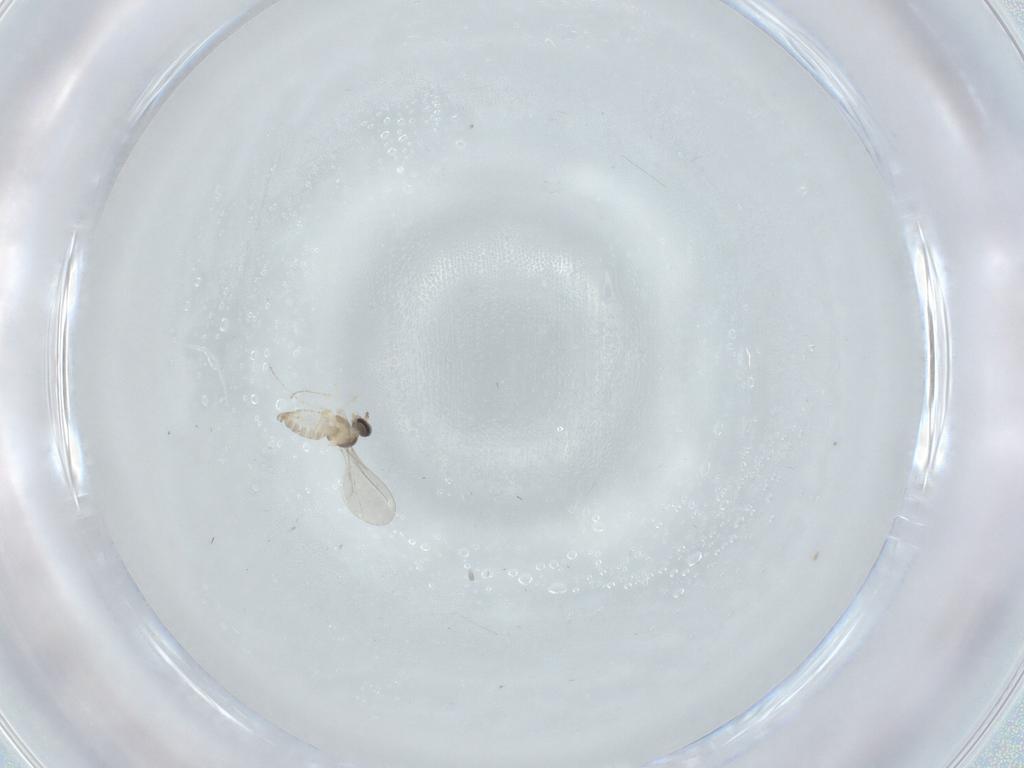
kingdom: Animalia
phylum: Arthropoda
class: Insecta
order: Diptera
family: Cecidomyiidae
